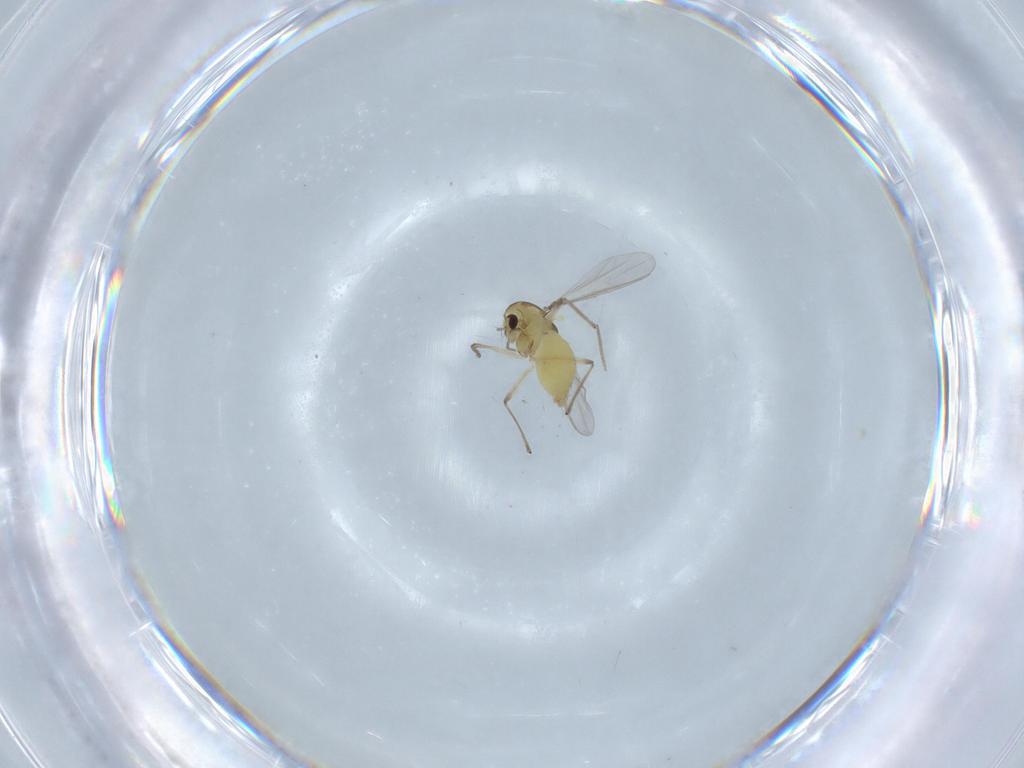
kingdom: Animalia
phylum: Arthropoda
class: Insecta
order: Diptera
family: Chironomidae
